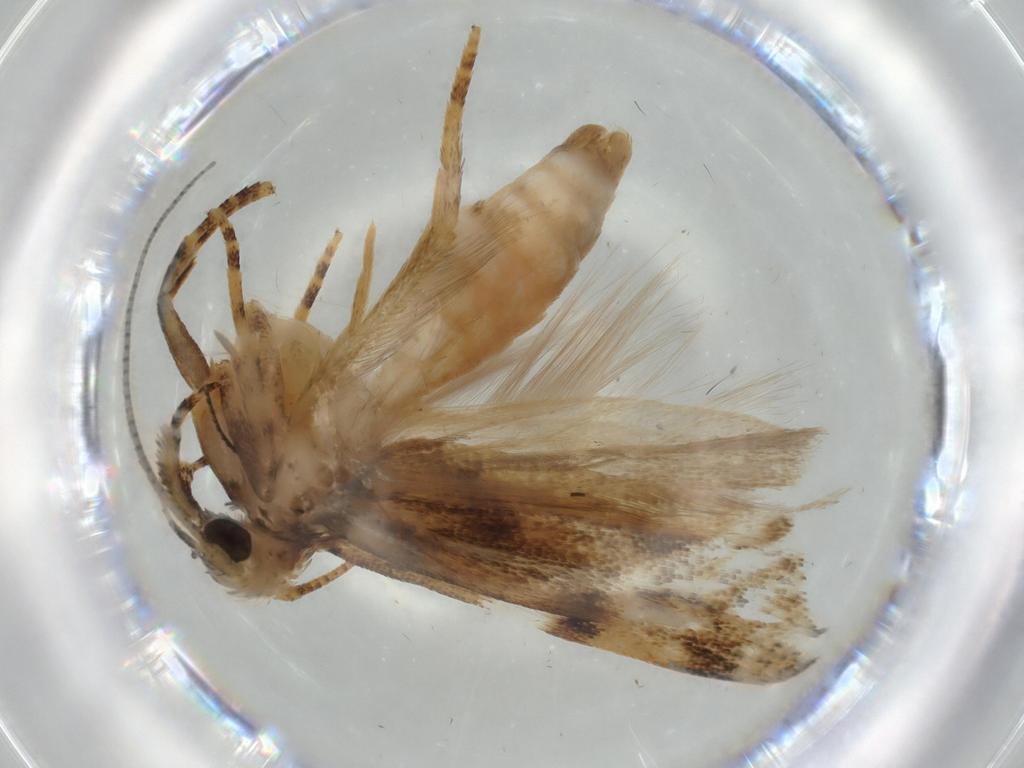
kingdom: Animalia
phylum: Arthropoda
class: Insecta
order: Lepidoptera
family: Autostichidae
